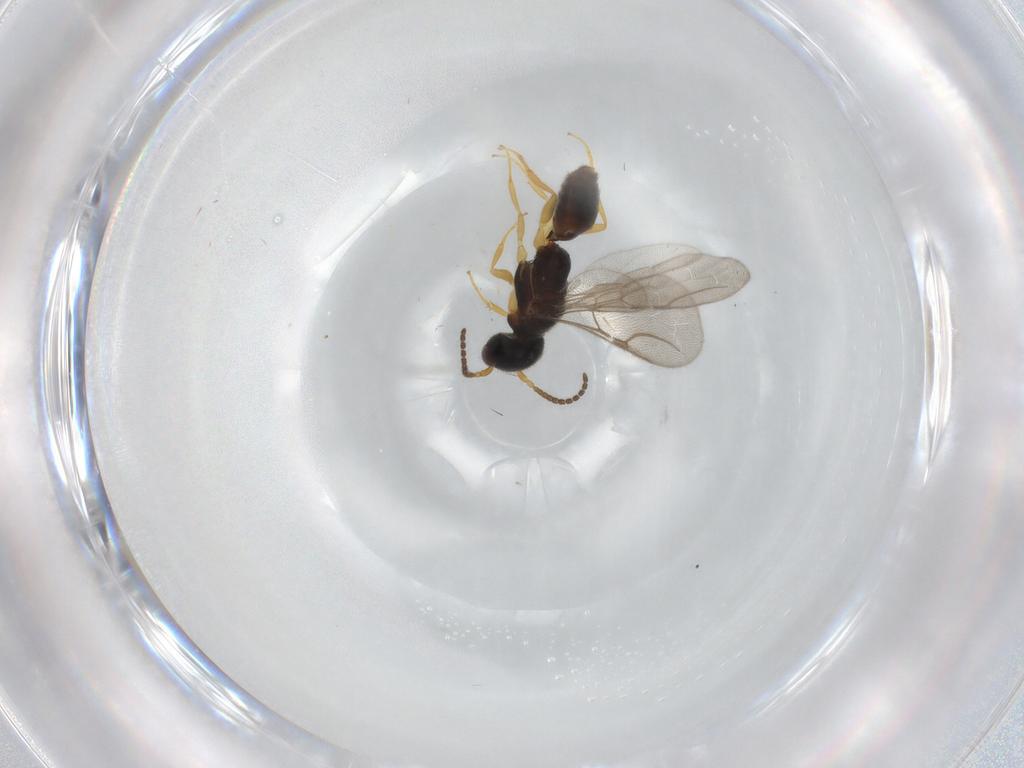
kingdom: Animalia
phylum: Arthropoda
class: Insecta
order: Hymenoptera
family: Bethylidae
